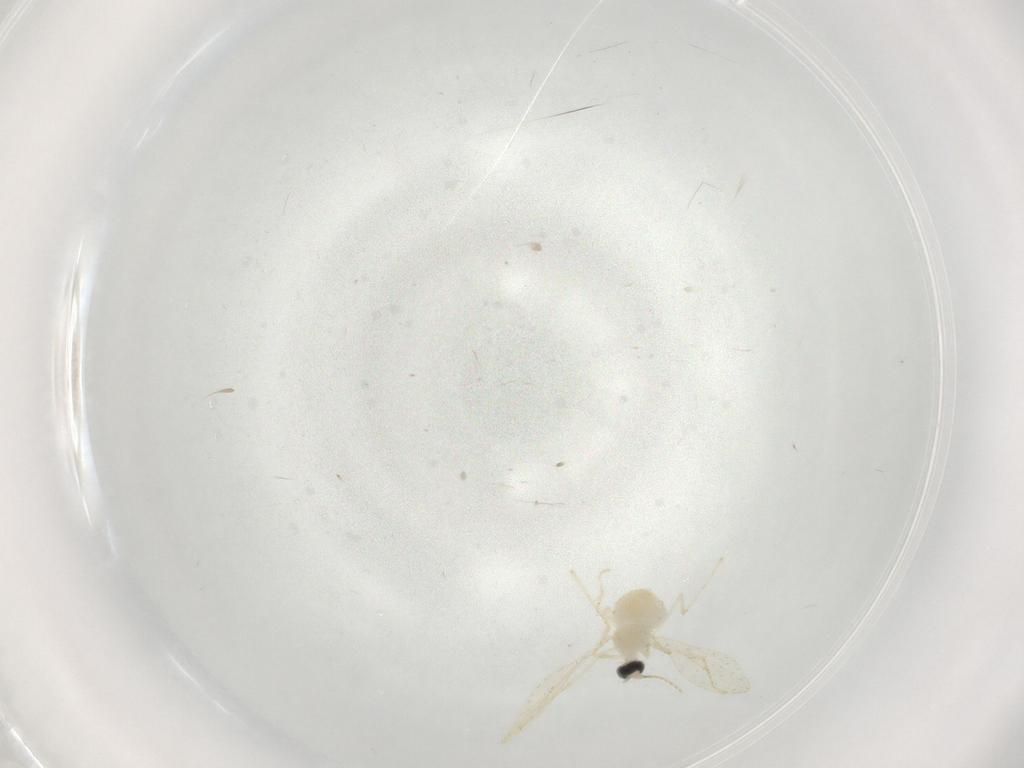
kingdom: Animalia
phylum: Arthropoda
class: Insecta
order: Diptera
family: Cecidomyiidae
